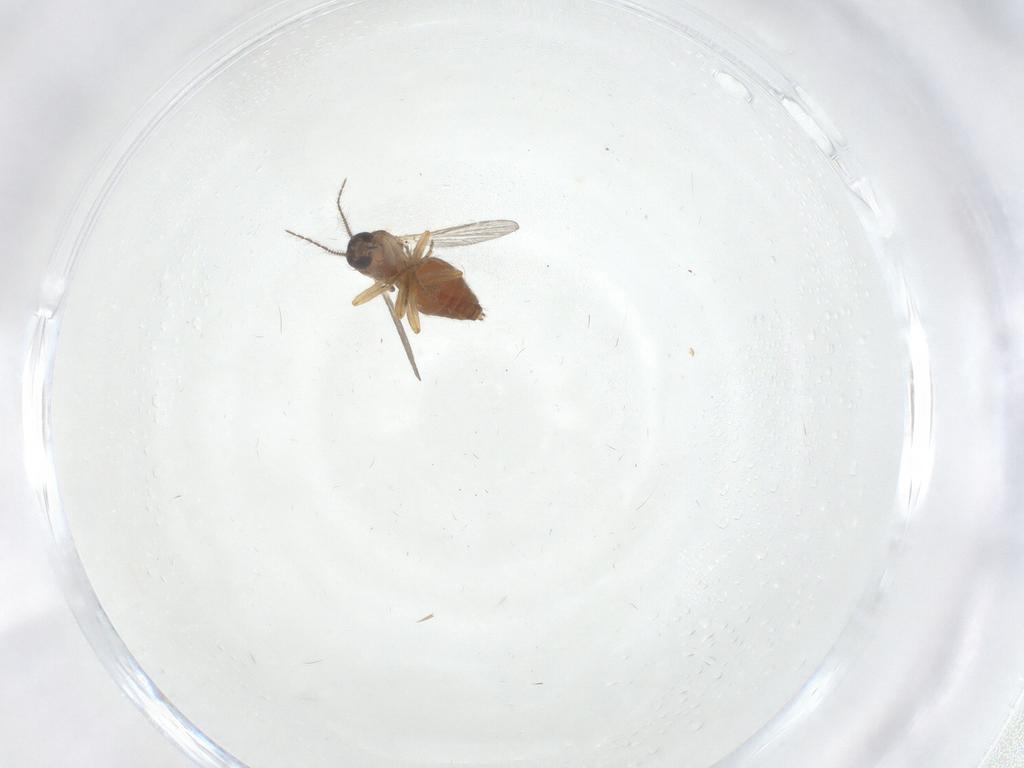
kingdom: Animalia
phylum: Arthropoda
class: Insecta
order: Diptera
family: Ceratopogonidae
